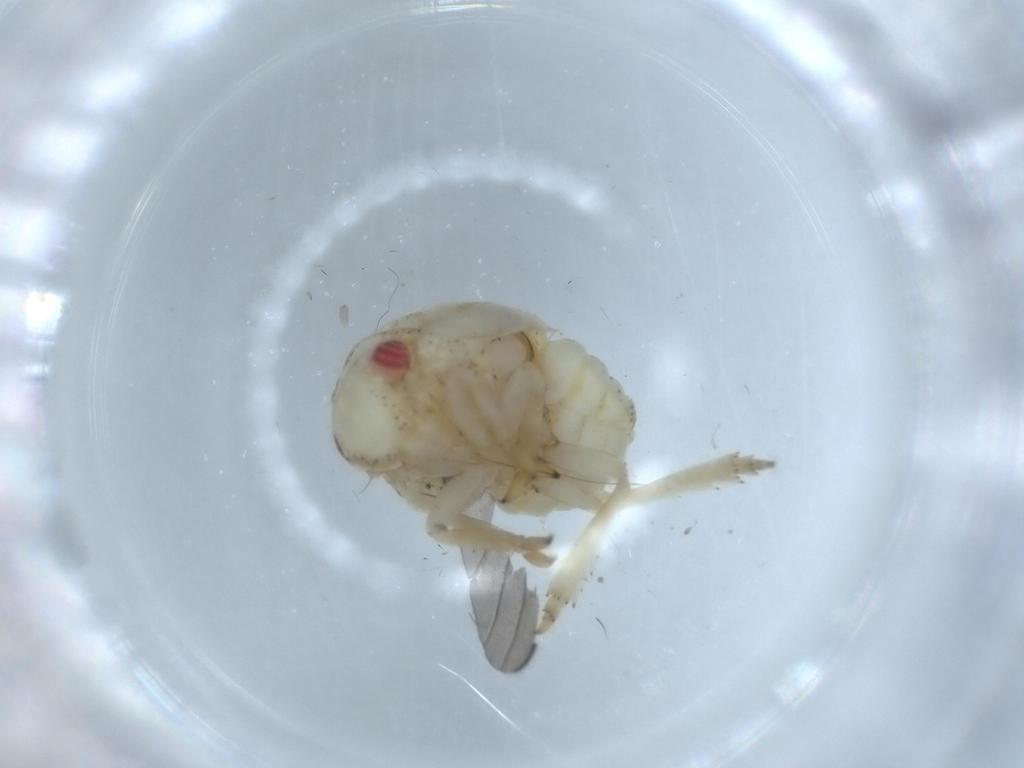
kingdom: Animalia
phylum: Arthropoda
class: Insecta
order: Hemiptera
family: Acanaloniidae
